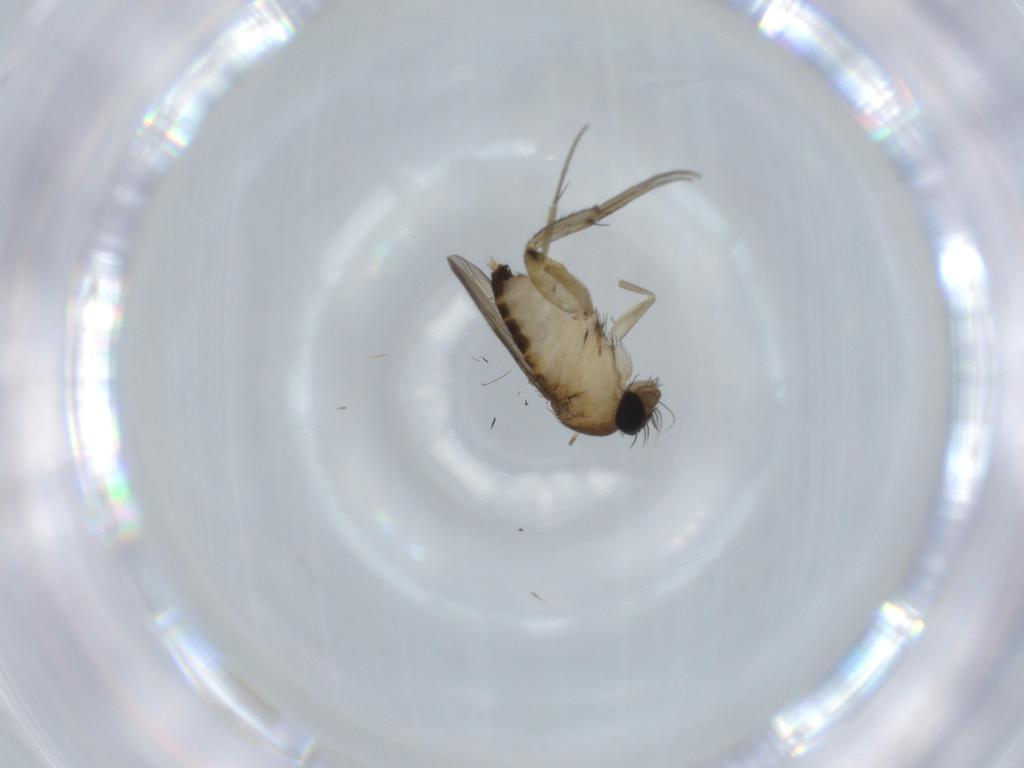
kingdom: Animalia
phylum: Arthropoda
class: Insecta
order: Diptera
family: Phoridae
